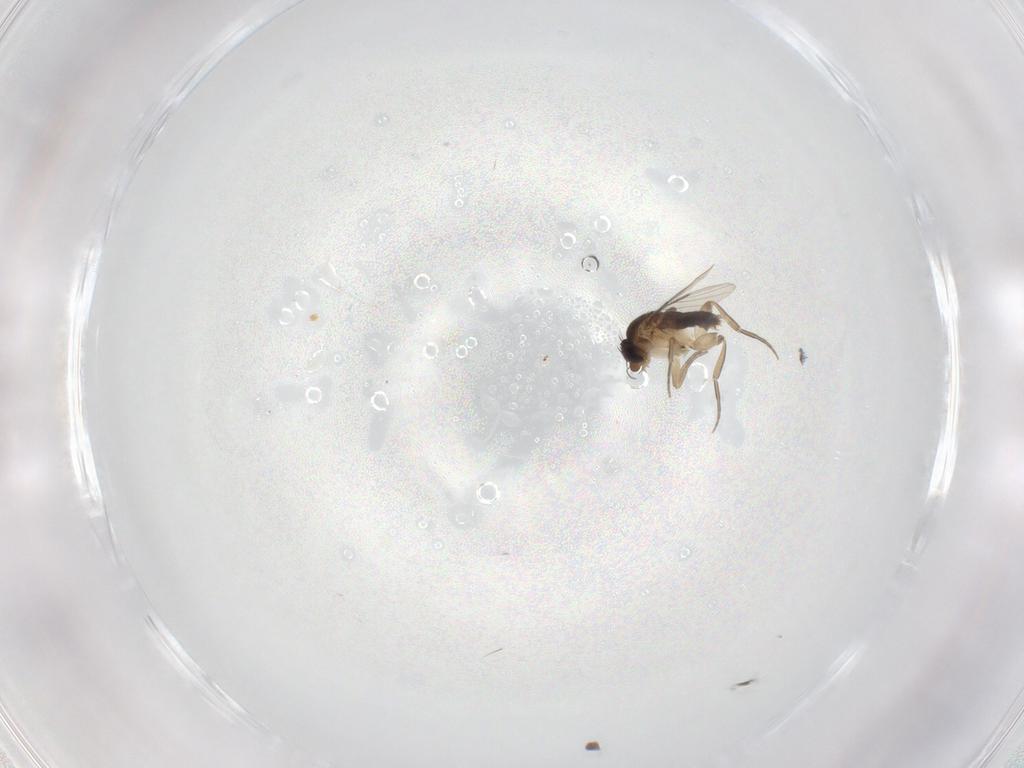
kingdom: Animalia
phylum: Arthropoda
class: Insecta
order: Diptera
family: Phoridae
